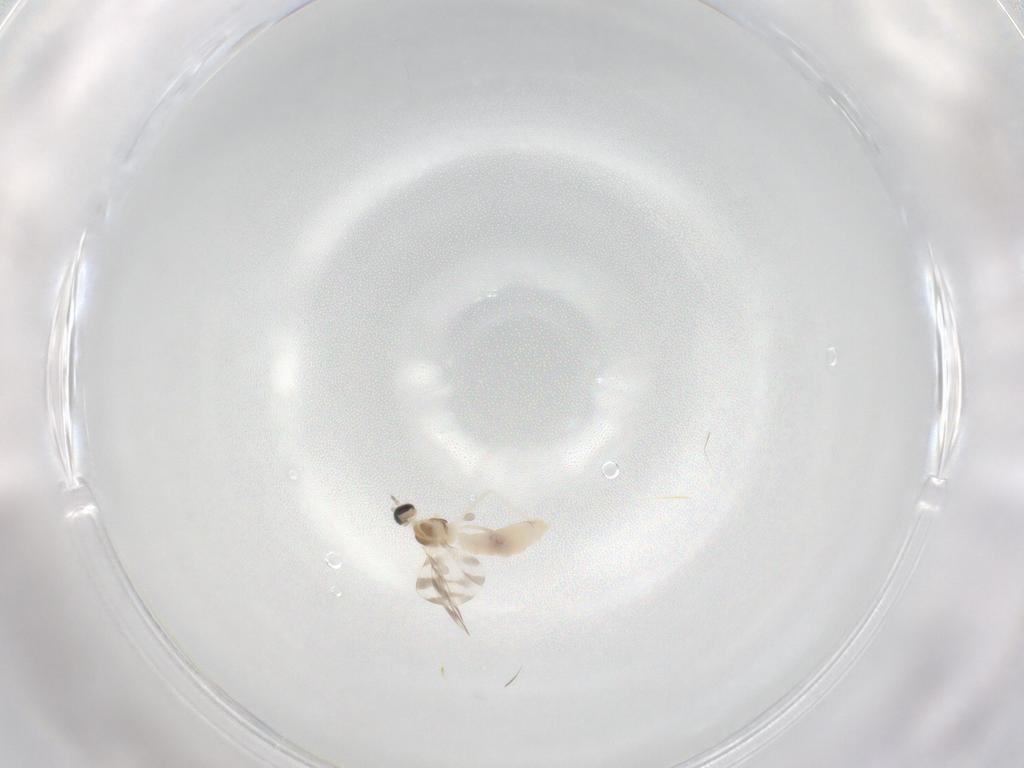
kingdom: Animalia
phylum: Arthropoda
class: Insecta
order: Diptera
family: Cecidomyiidae
